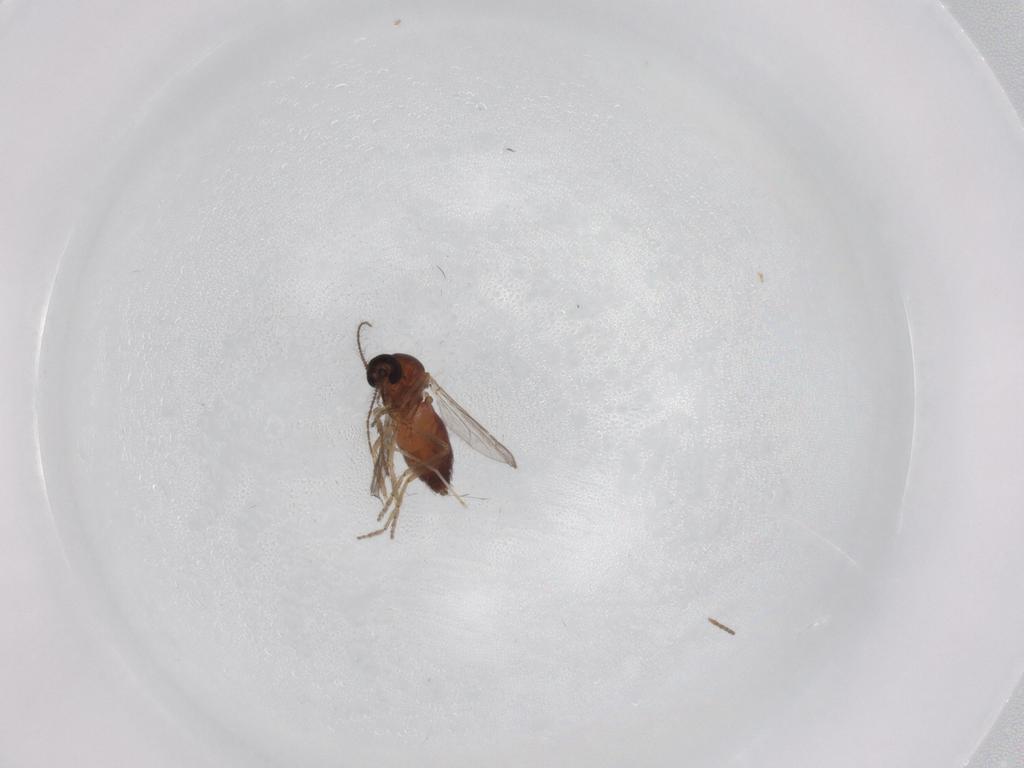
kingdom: Animalia
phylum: Arthropoda
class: Insecta
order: Diptera
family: Ceratopogonidae
